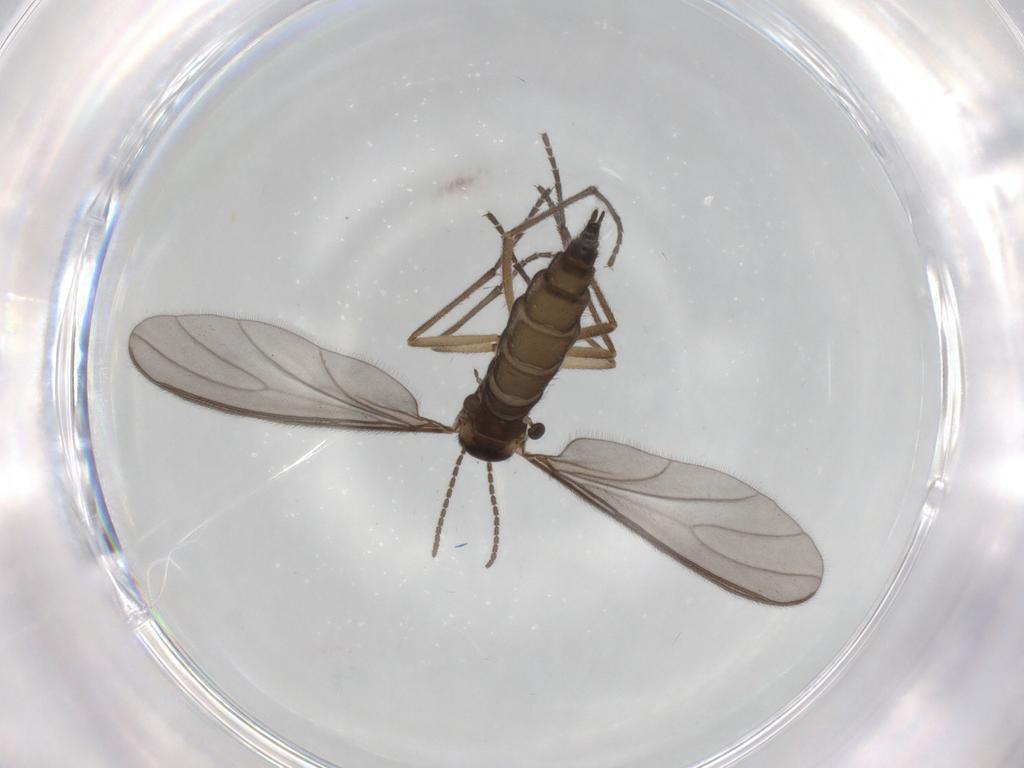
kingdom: Animalia
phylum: Arthropoda
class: Insecta
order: Diptera
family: Sciaridae
